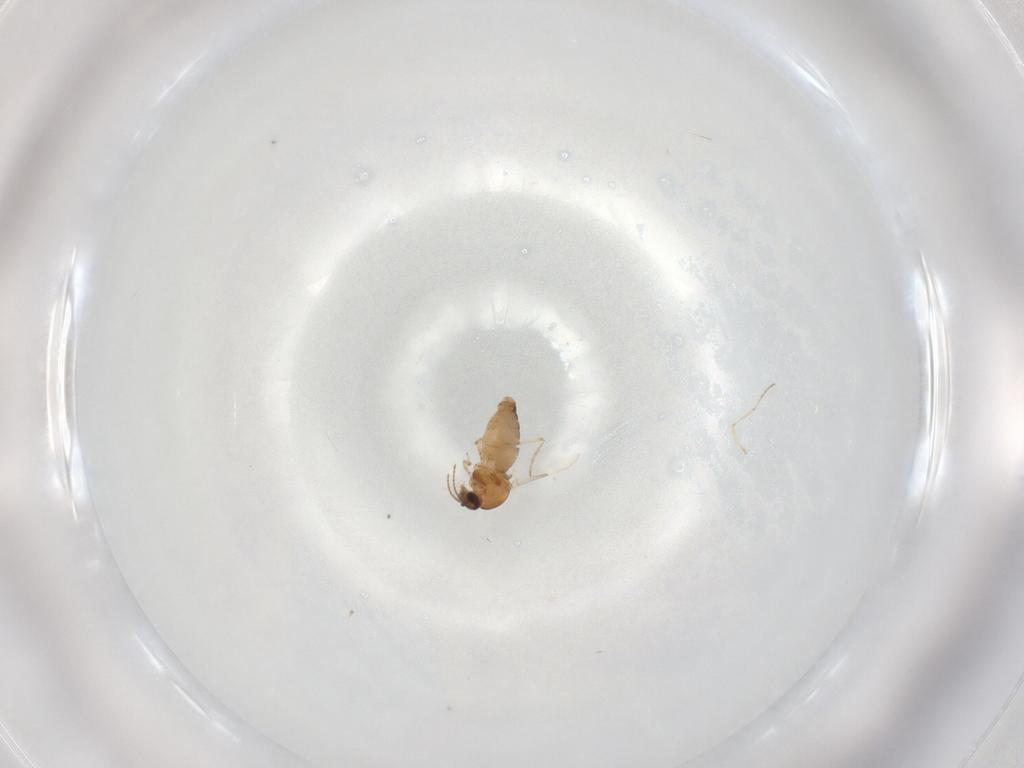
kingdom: Animalia
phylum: Arthropoda
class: Insecta
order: Diptera
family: Ceratopogonidae
